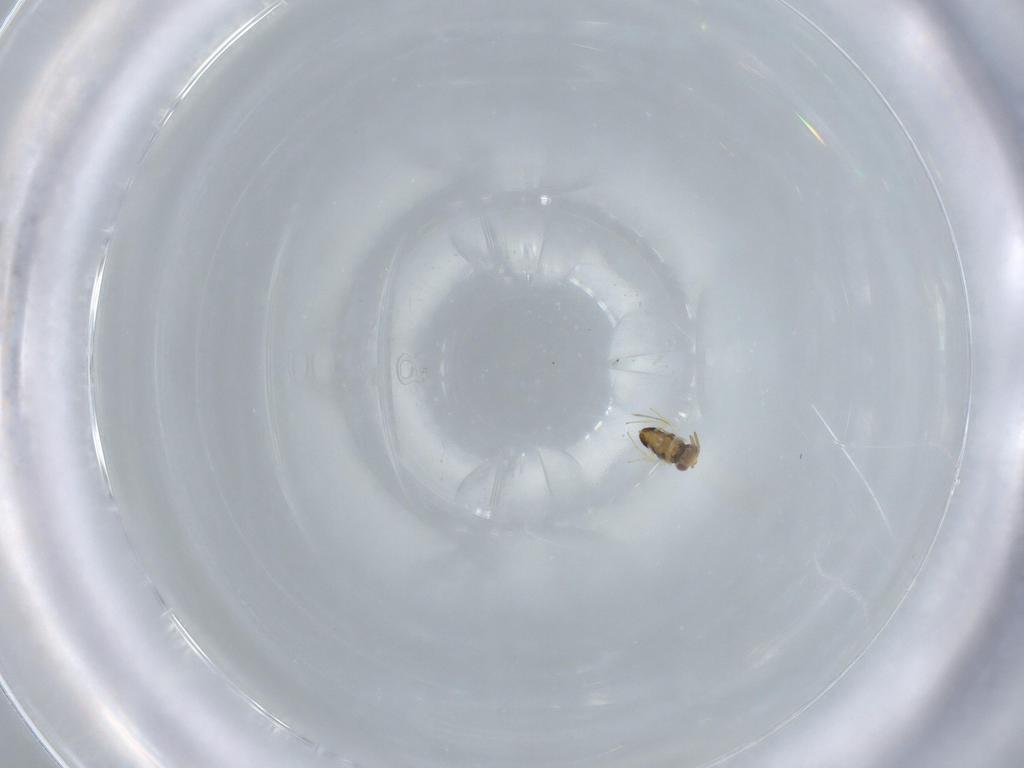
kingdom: Animalia
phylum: Arthropoda
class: Insecta
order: Hymenoptera
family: Aphelinidae
